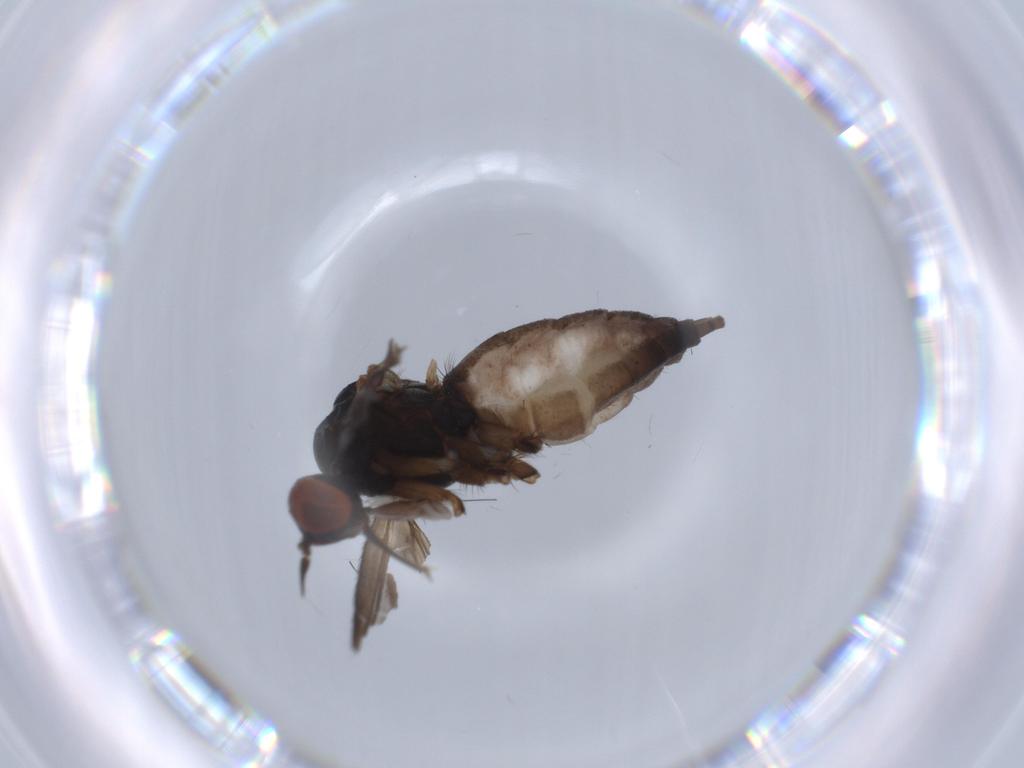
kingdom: Animalia
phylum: Arthropoda
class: Insecta
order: Diptera
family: Empididae
